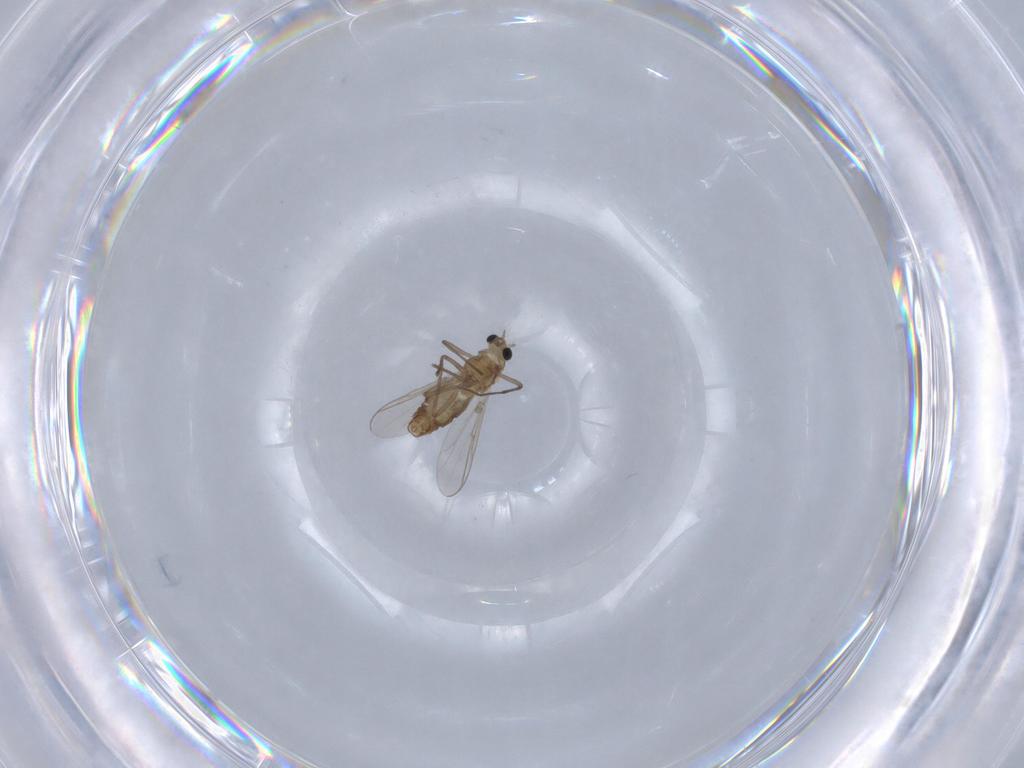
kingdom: Animalia
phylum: Arthropoda
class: Insecta
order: Diptera
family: Chironomidae
